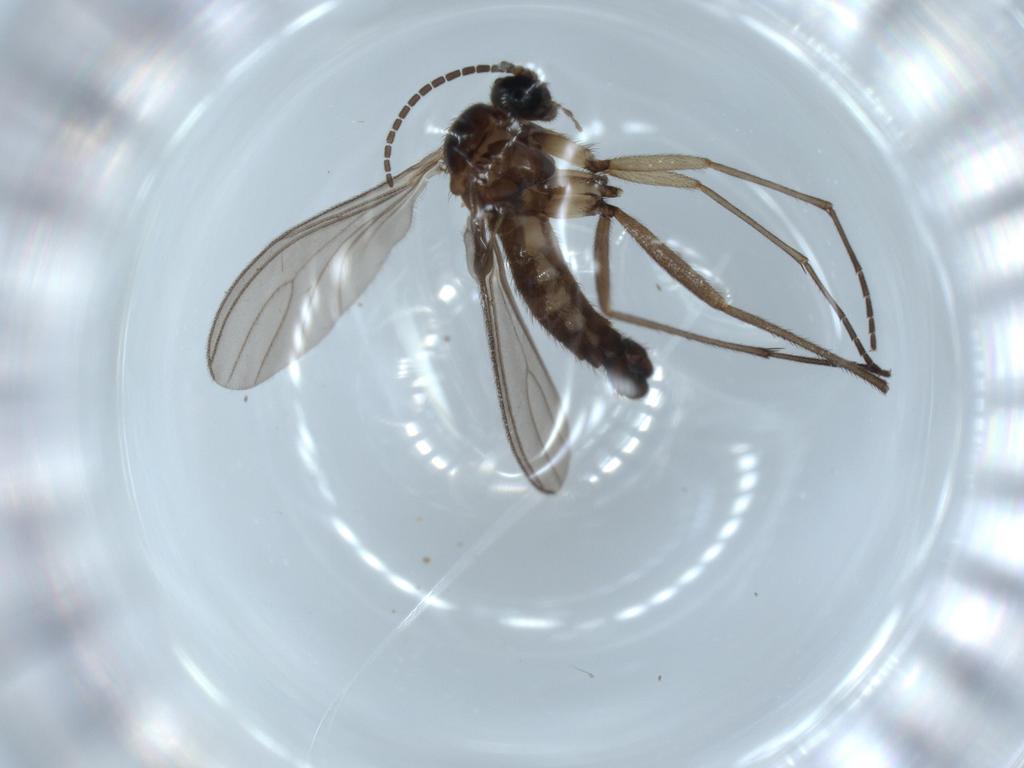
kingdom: Animalia
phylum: Arthropoda
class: Insecta
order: Diptera
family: Sciaridae
